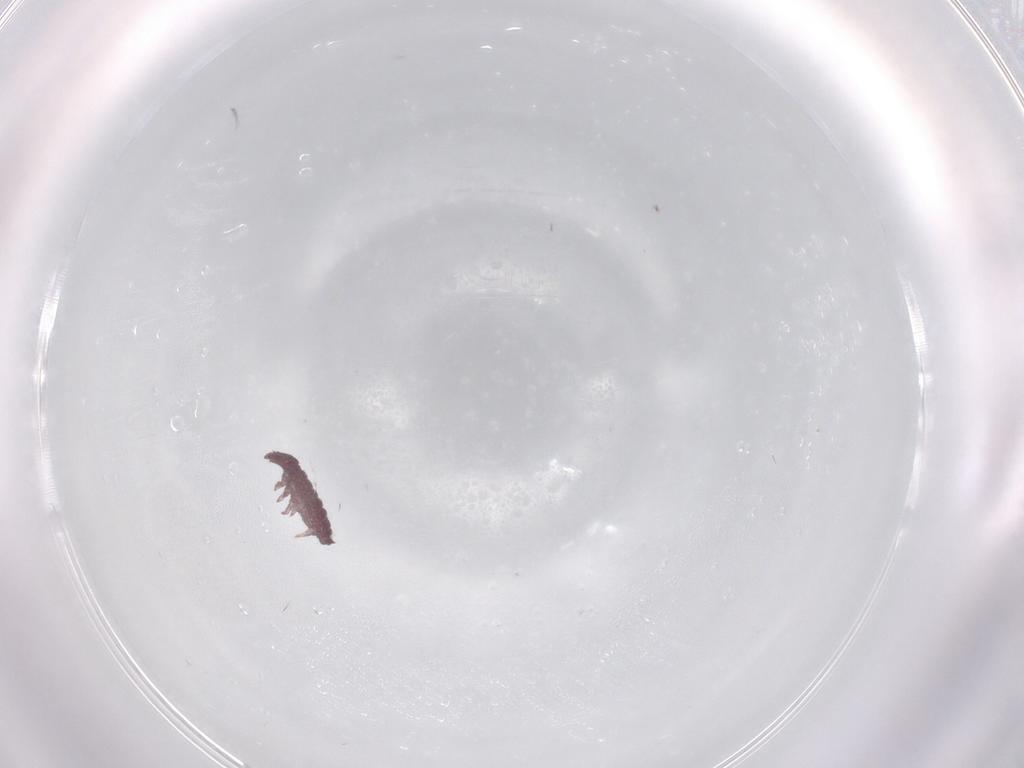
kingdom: Animalia
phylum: Arthropoda
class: Collembola
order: Poduromorpha
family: Hypogastruridae
